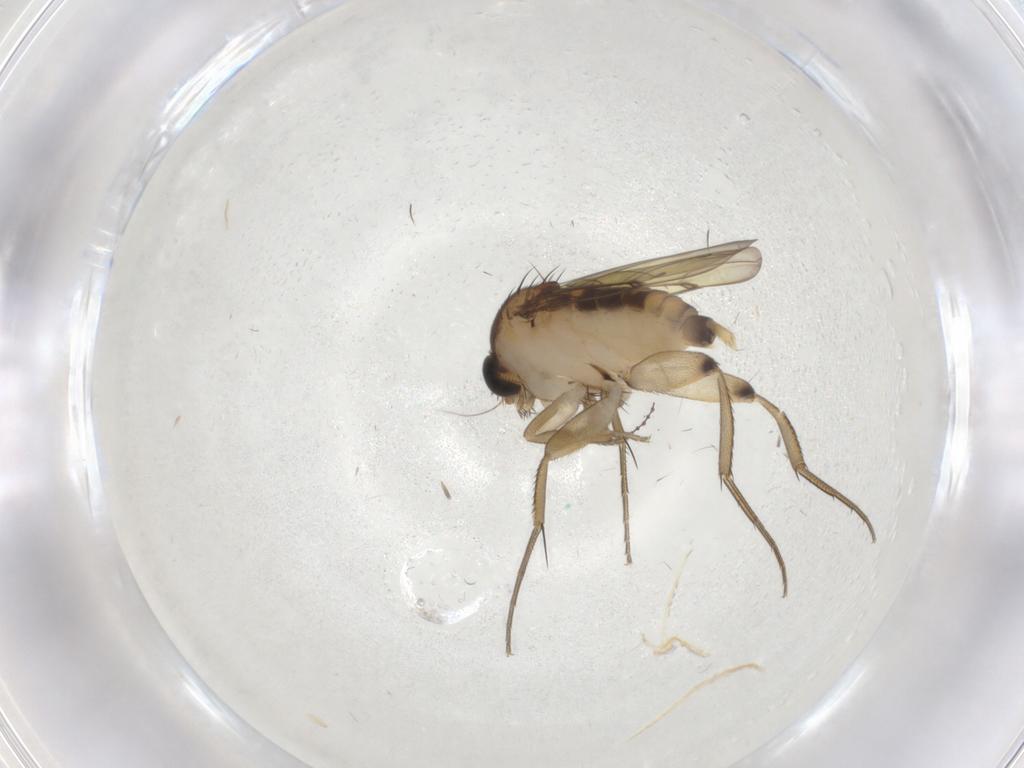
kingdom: Animalia
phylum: Arthropoda
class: Insecta
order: Diptera
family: Phoridae
